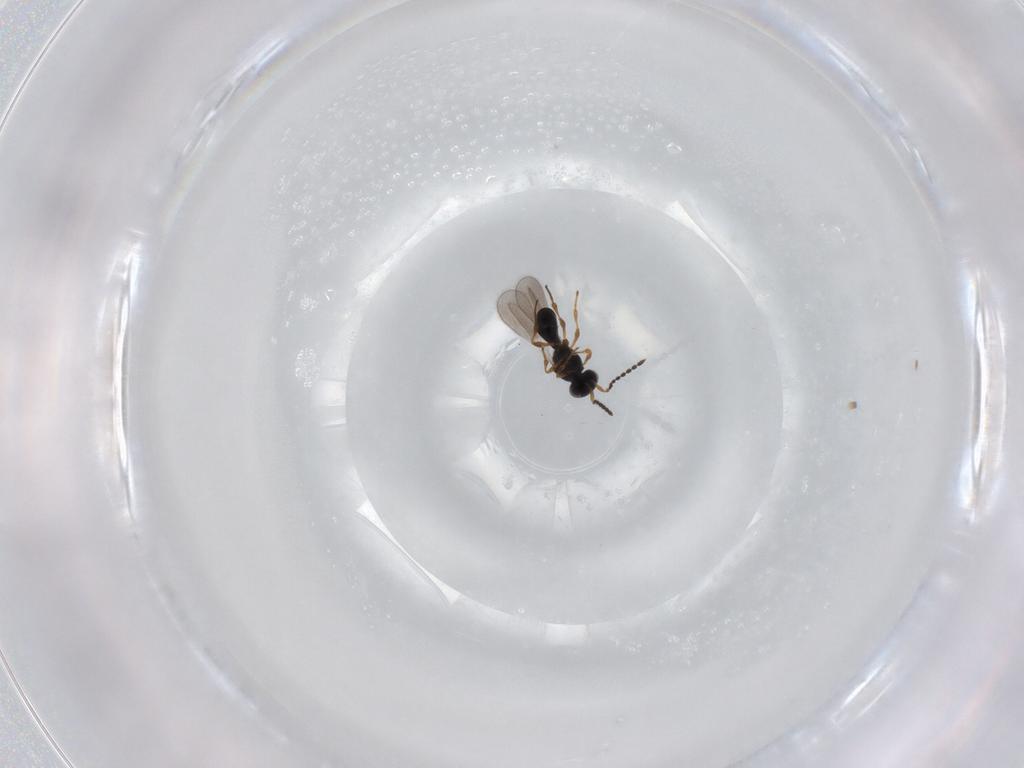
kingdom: Animalia
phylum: Arthropoda
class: Insecta
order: Hymenoptera
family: Platygastridae
